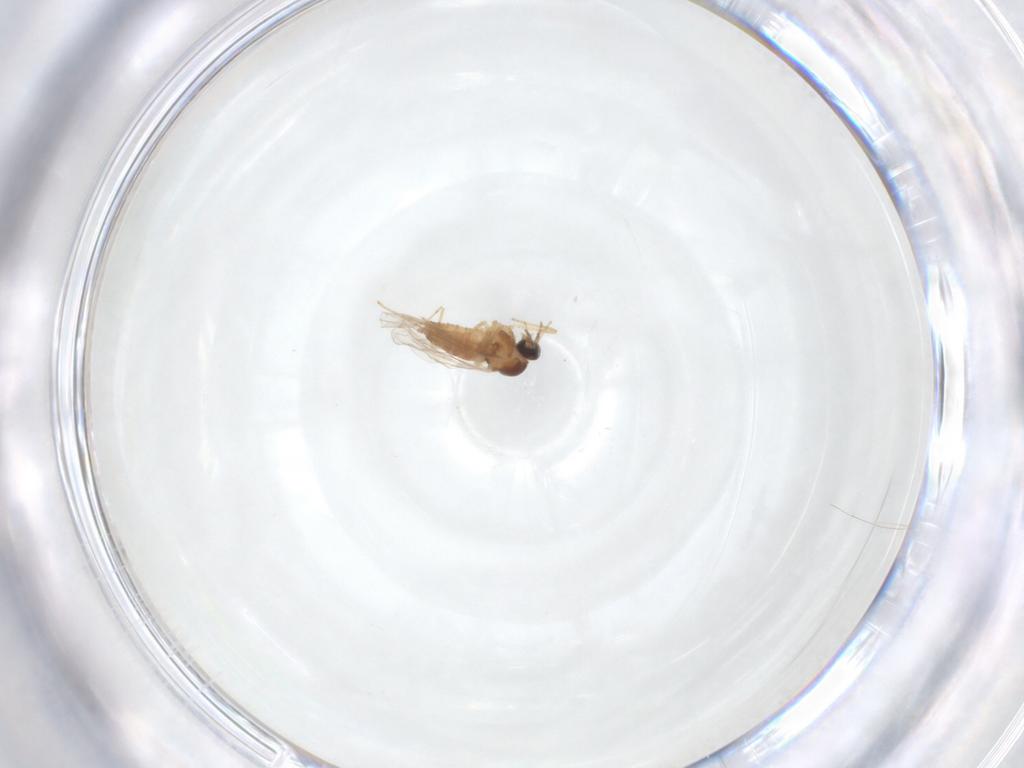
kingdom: Animalia
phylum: Arthropoda
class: Insecta
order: Diptera
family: Cecidomyiidae
